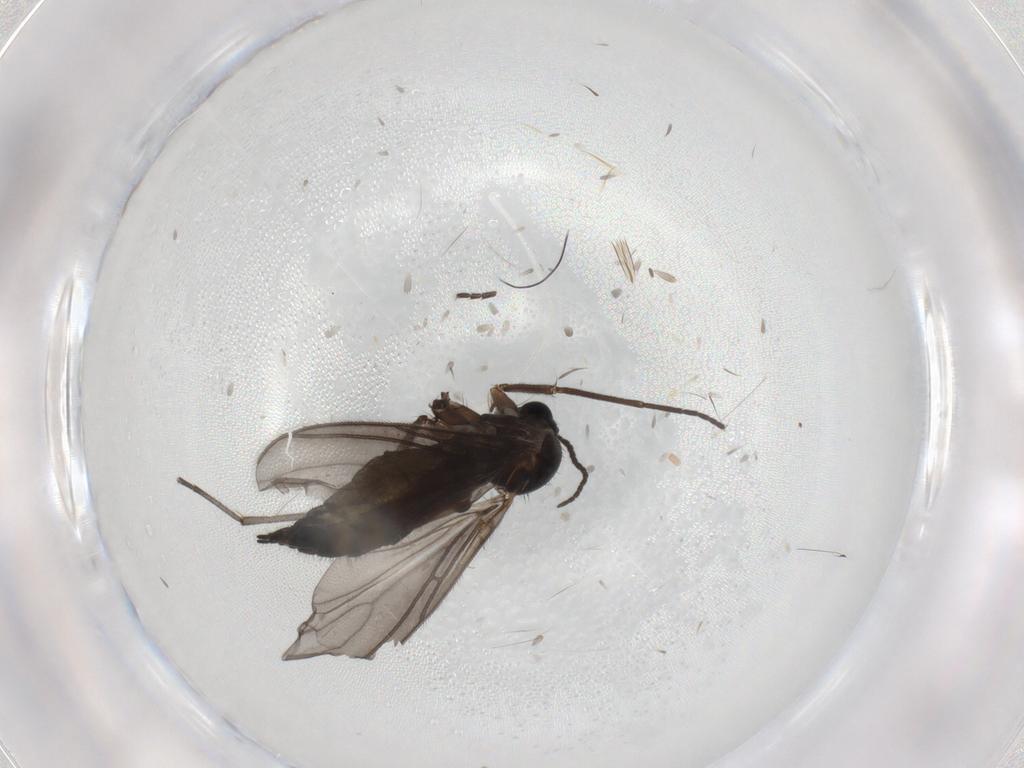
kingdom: Animalia
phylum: Arthropoda
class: Insecta
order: Diptera
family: Sciaridae
